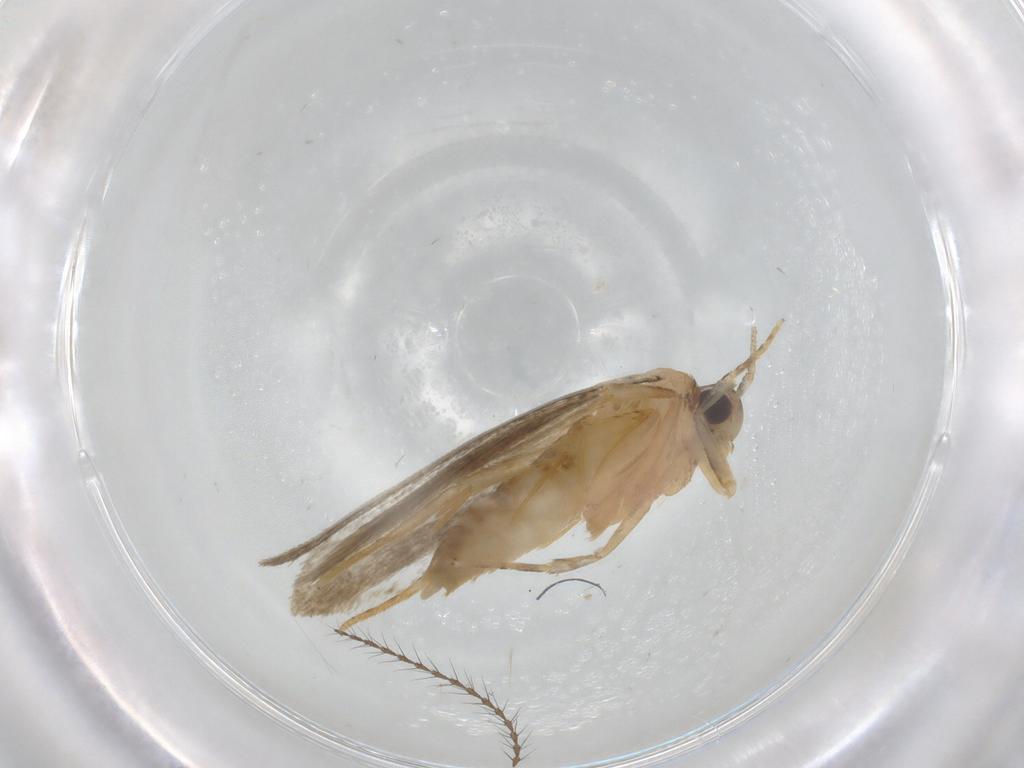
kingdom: Animalia
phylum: Arthropoda
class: Insecta
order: Lepidoptera
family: Autostichidae
